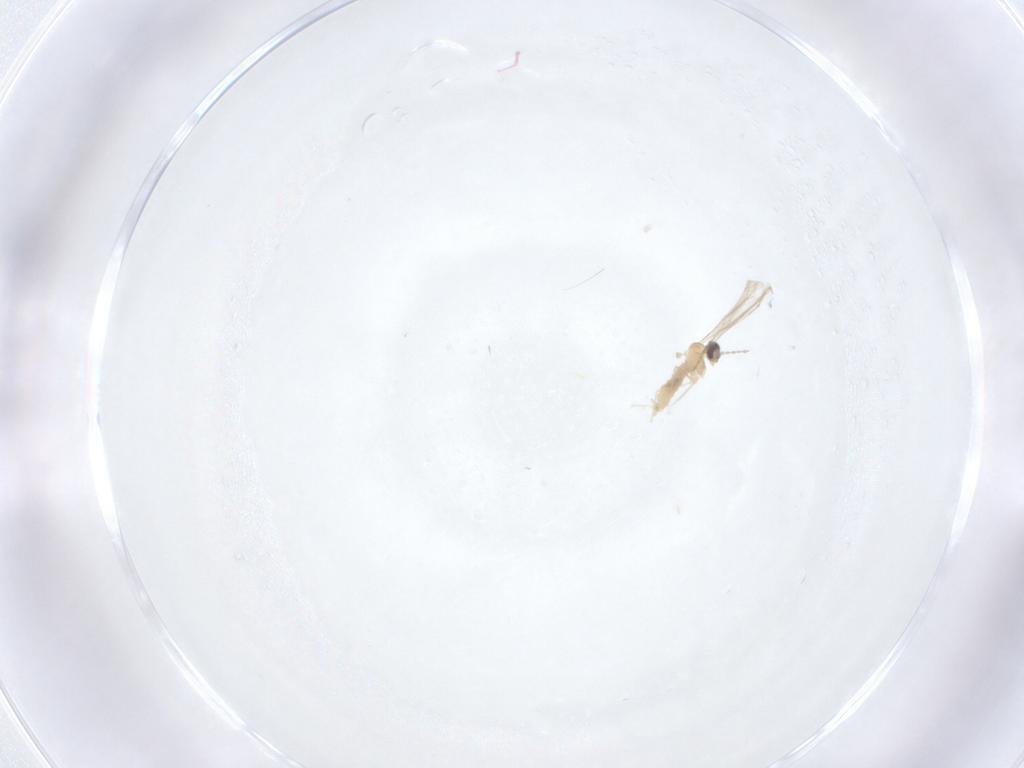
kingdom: Animalia
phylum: Arthropoda
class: Insecta
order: Diptera
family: Cecidomyiidae
